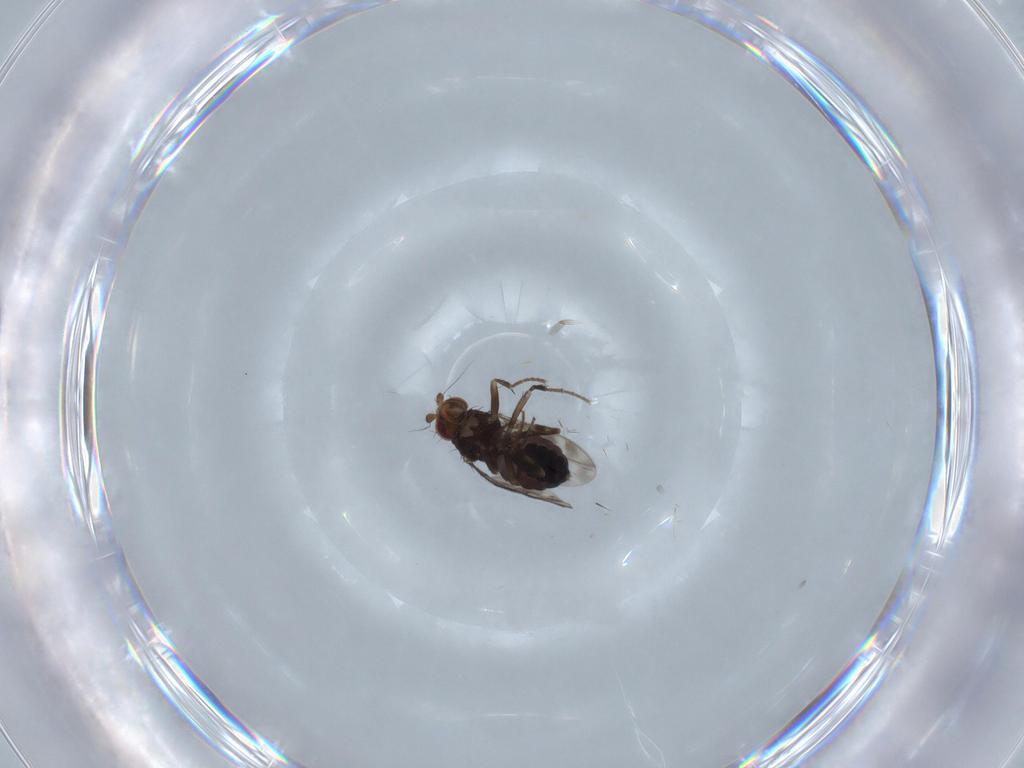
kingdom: Animalia
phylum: Arthropoda
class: Insecta
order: Diptera
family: Sphaeroceridae
